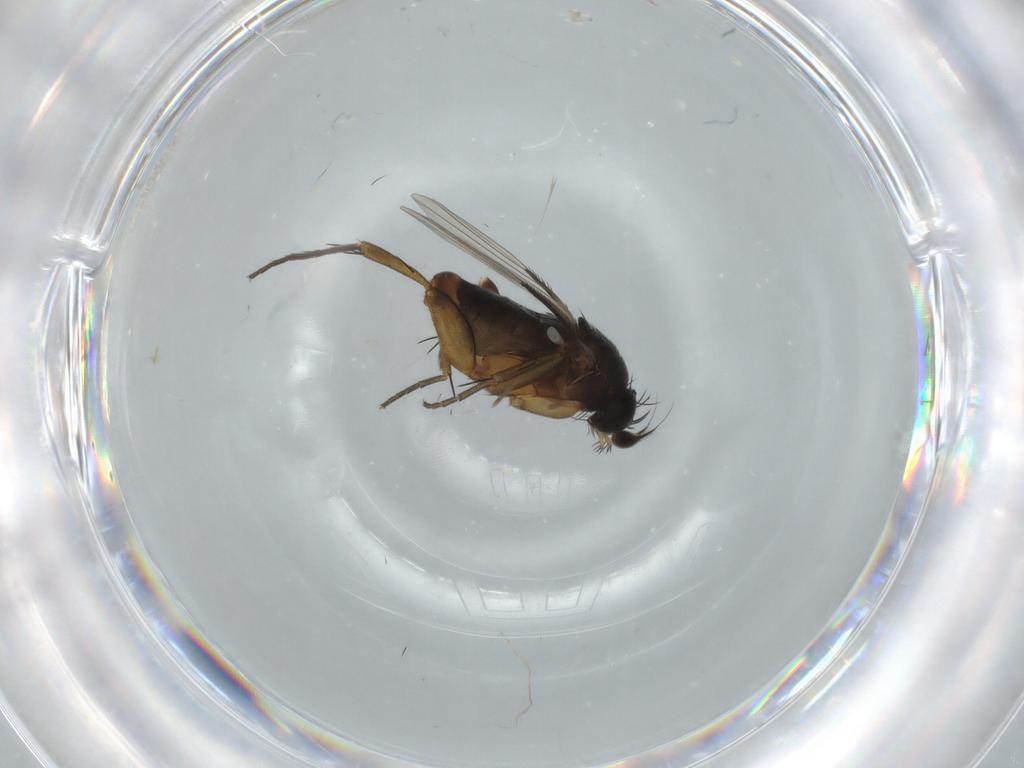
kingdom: Animalia
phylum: Arthropoda
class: Insecta
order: Diptera
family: Phoridae
